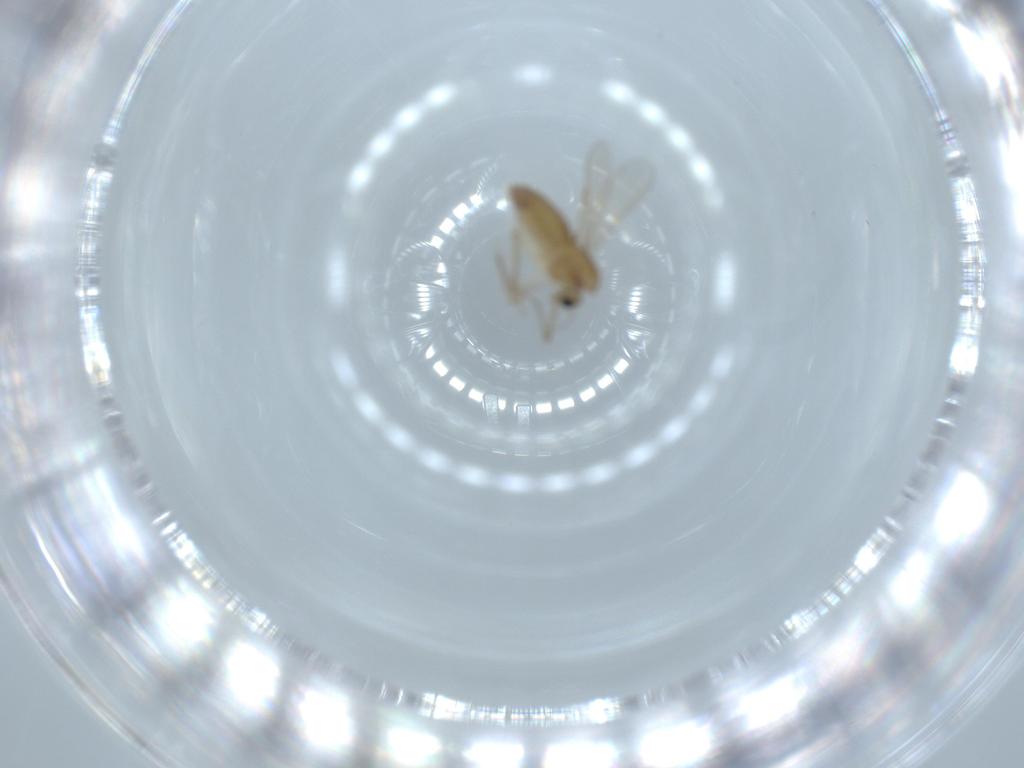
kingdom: Animalia
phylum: Arthropoda
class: Insecta
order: Diptera
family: Chironomidae
